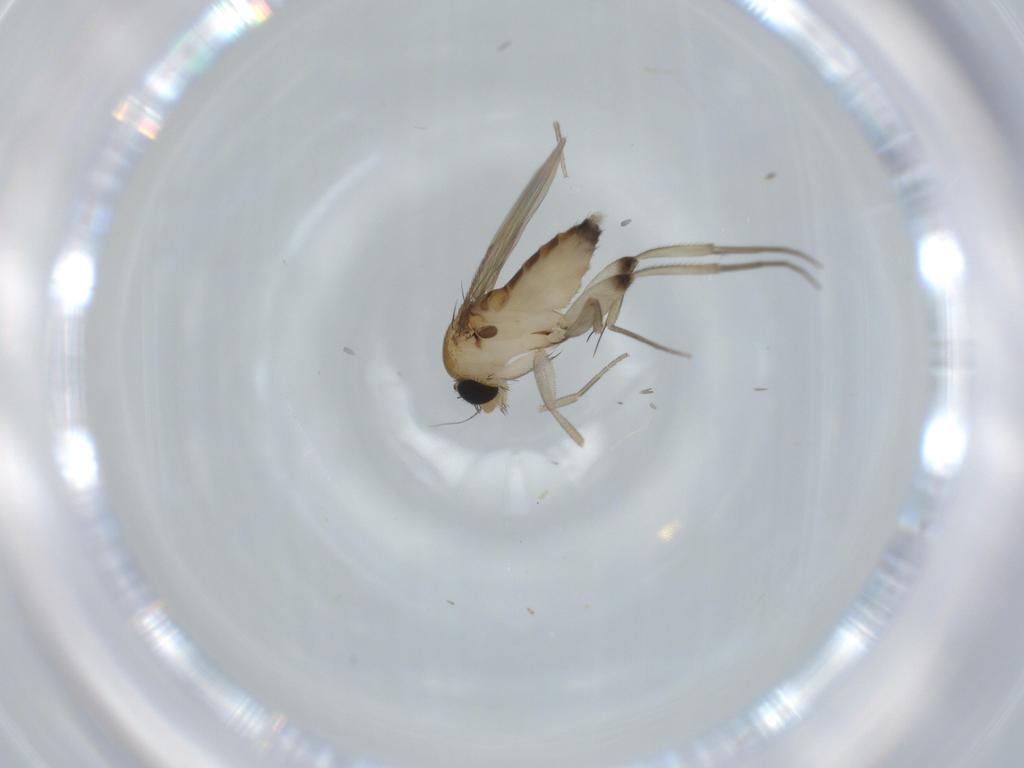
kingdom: Animalia
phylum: Arthropoda
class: Insecta
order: Diptera
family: Phoridae
